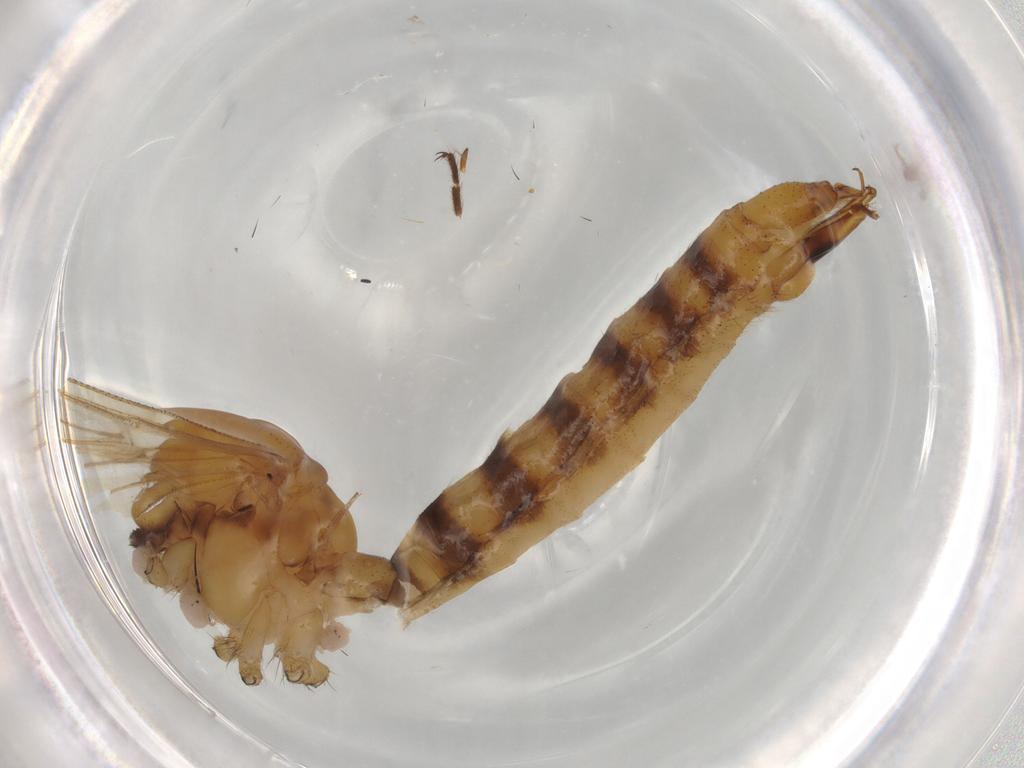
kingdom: Animalia
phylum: Arthropoda
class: Insecta
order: Diptera
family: Limoniidae
